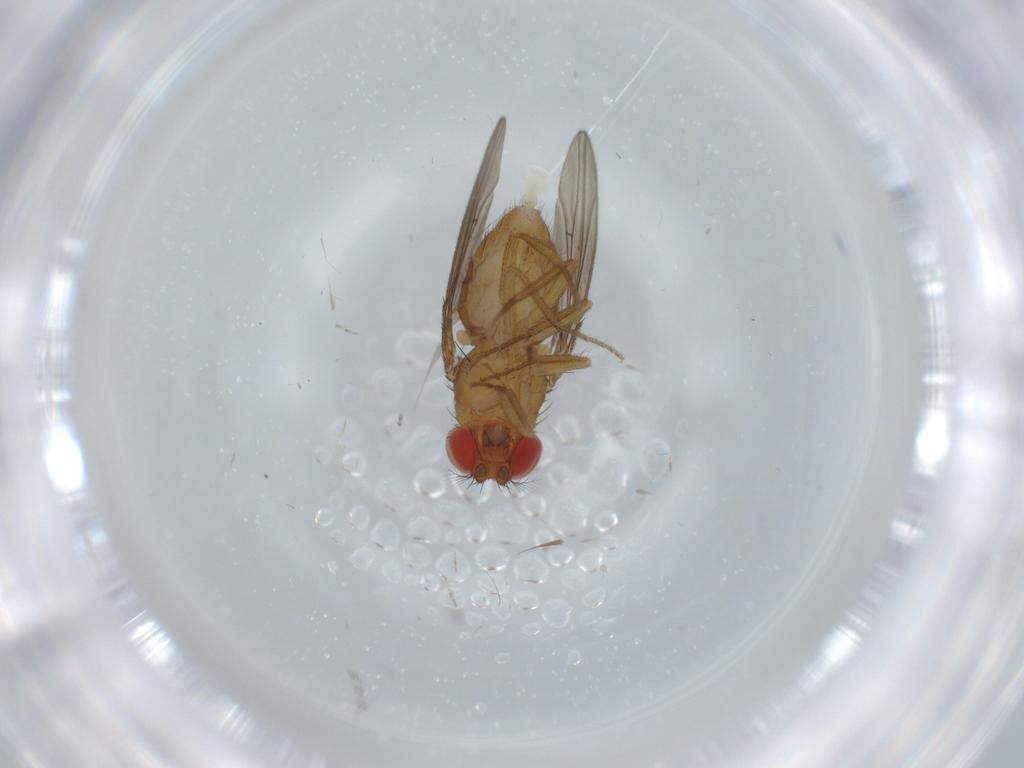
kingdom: Animalia
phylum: Arthropoda
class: Insecta
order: Diptera
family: Drosophilidae
